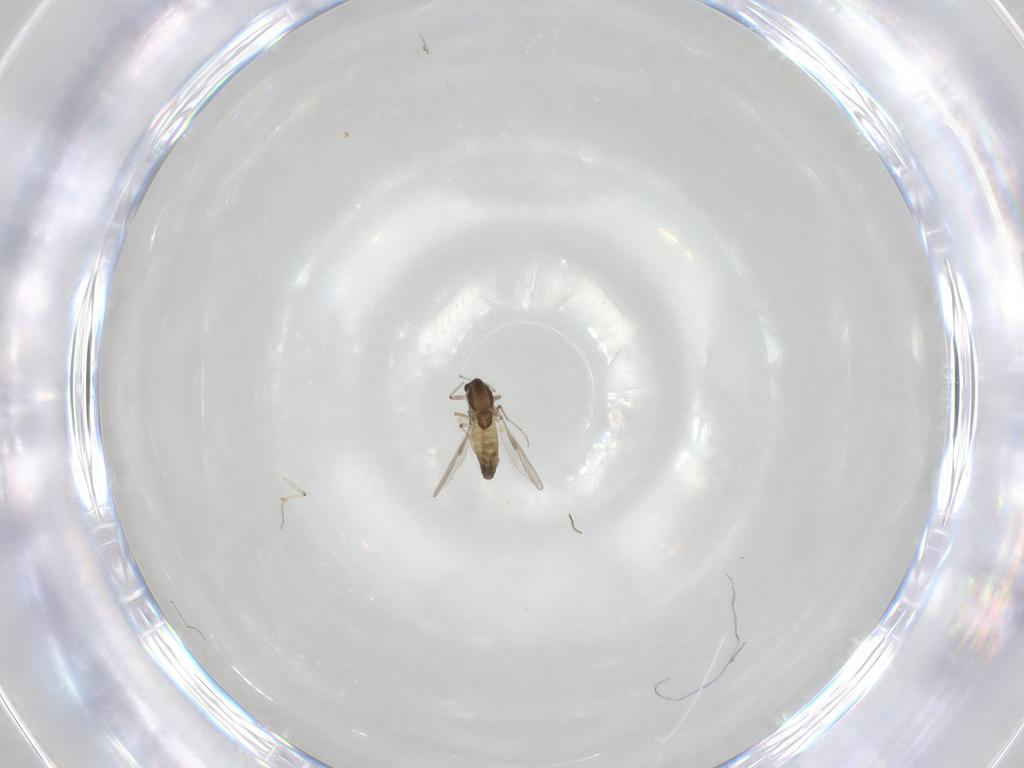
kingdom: Animalia
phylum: Arthropoda
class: Insecta
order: Diptera
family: Chironomidae
